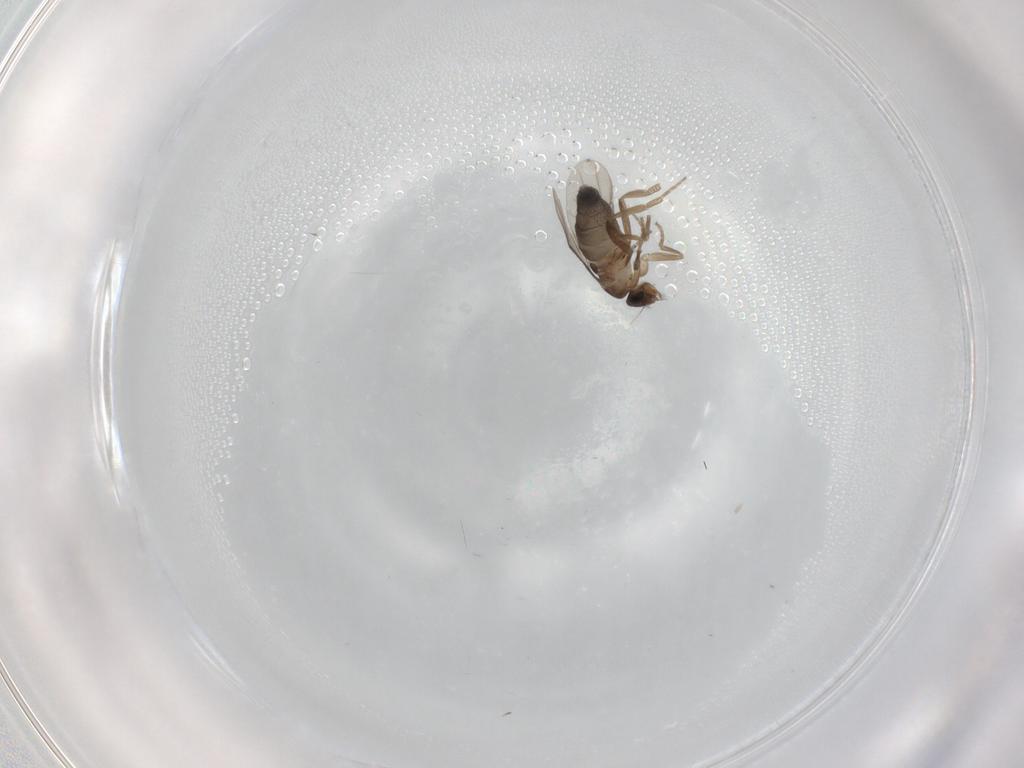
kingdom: Animalia
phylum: Arthropoda
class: Insecta
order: Diptera
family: Phoridae
